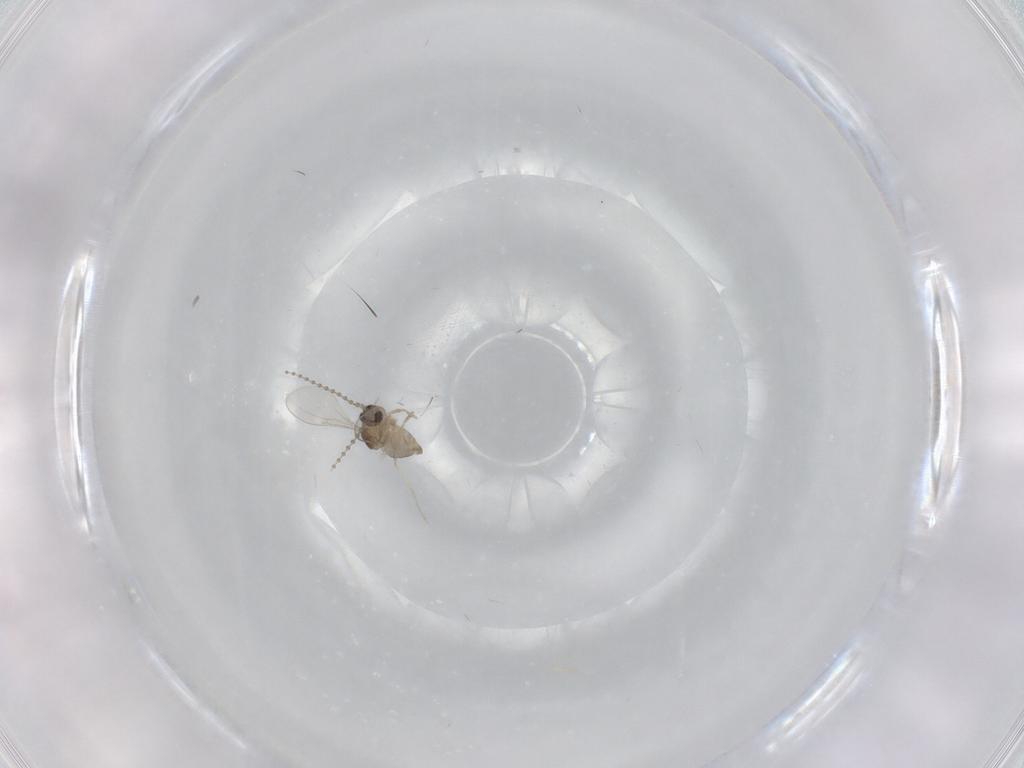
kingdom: Animalia
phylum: Arthropoda
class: Insecta
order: Diptera
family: Cecidomyiidae
